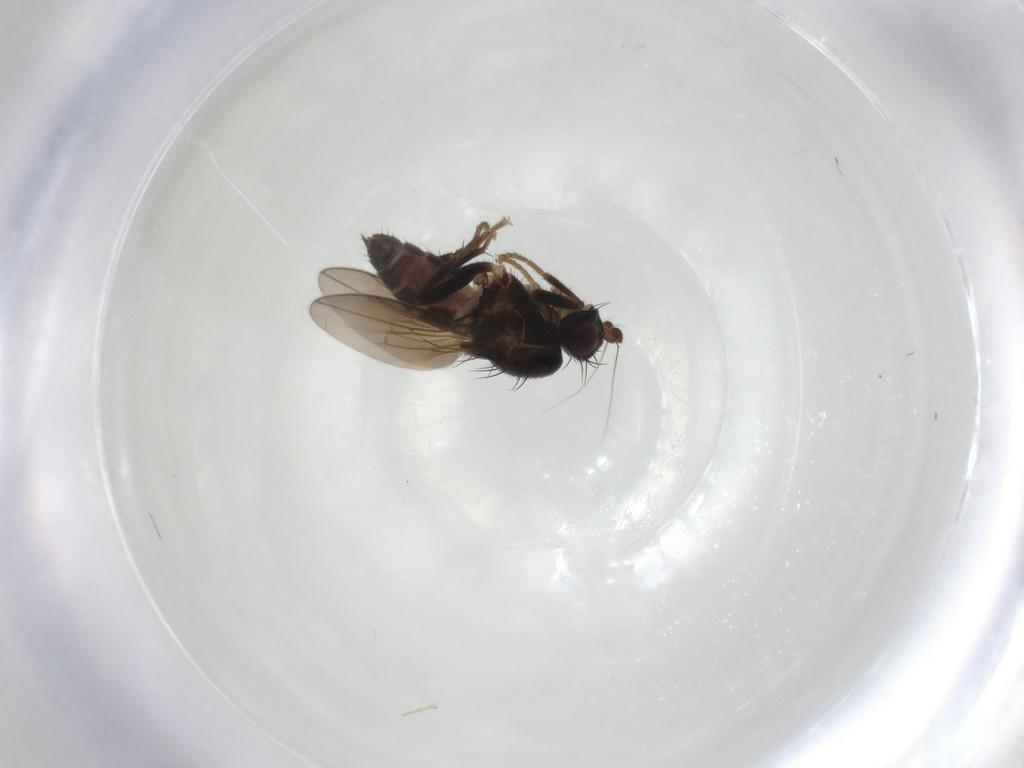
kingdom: Animalia
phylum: Arthropoda
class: Insecta
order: Diptera
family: Sphaeroceridae
